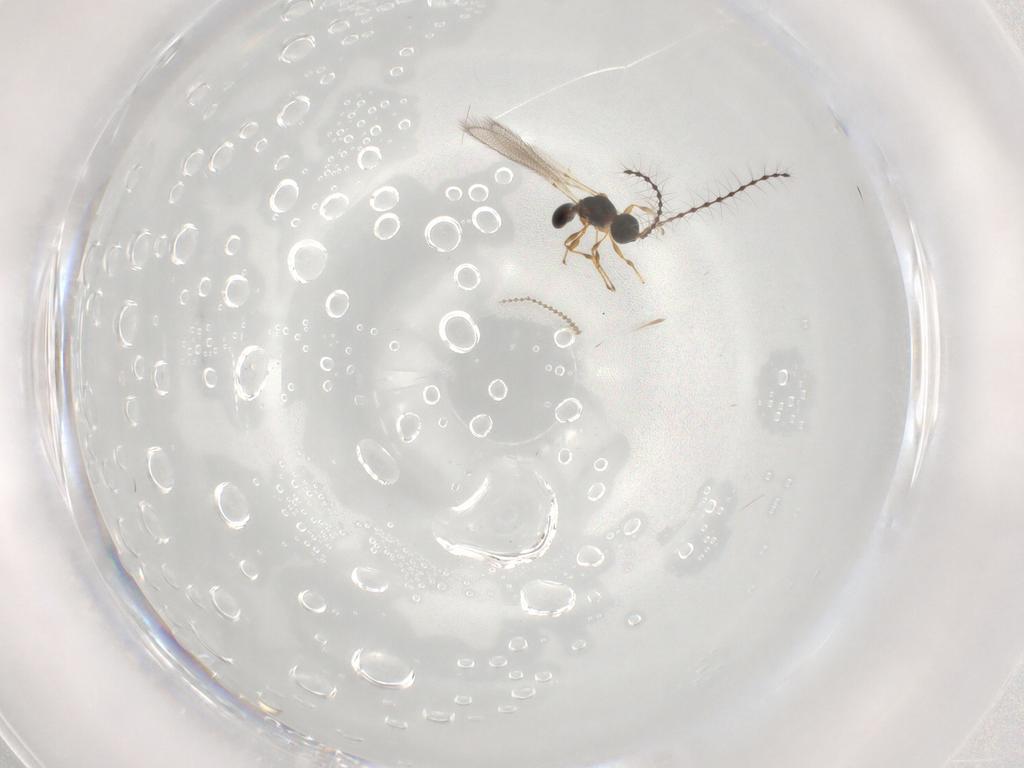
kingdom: Animalia
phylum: Arthropoda
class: Insecta
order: Hymenoptera
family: Diapriidae
